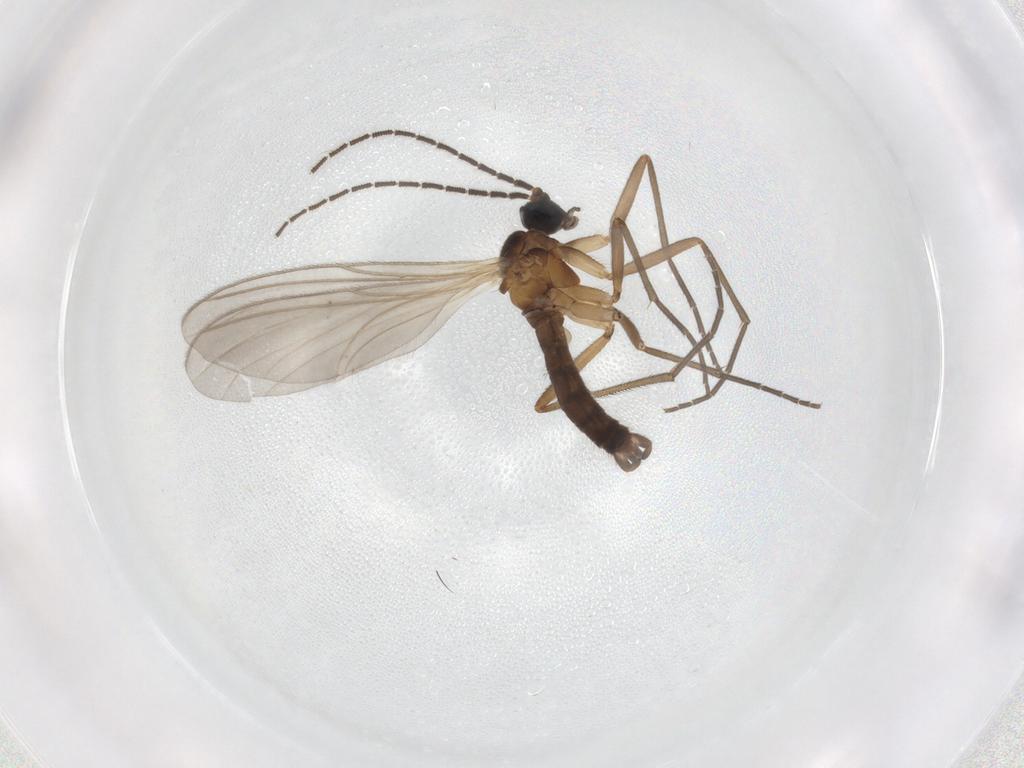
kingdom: Animalia
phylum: Arthropoda
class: Insecta
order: Diptera
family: Sciaridae
